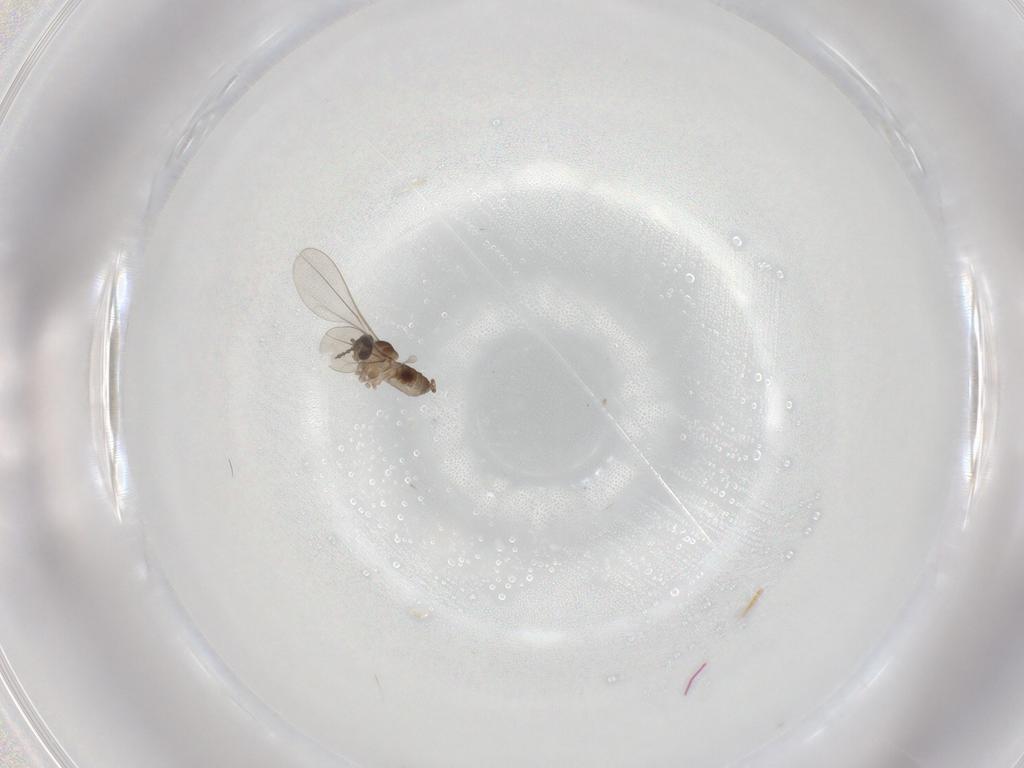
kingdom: Animalia
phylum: Arthropoda
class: Insecta
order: Diptera
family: Cecidomyiidae
